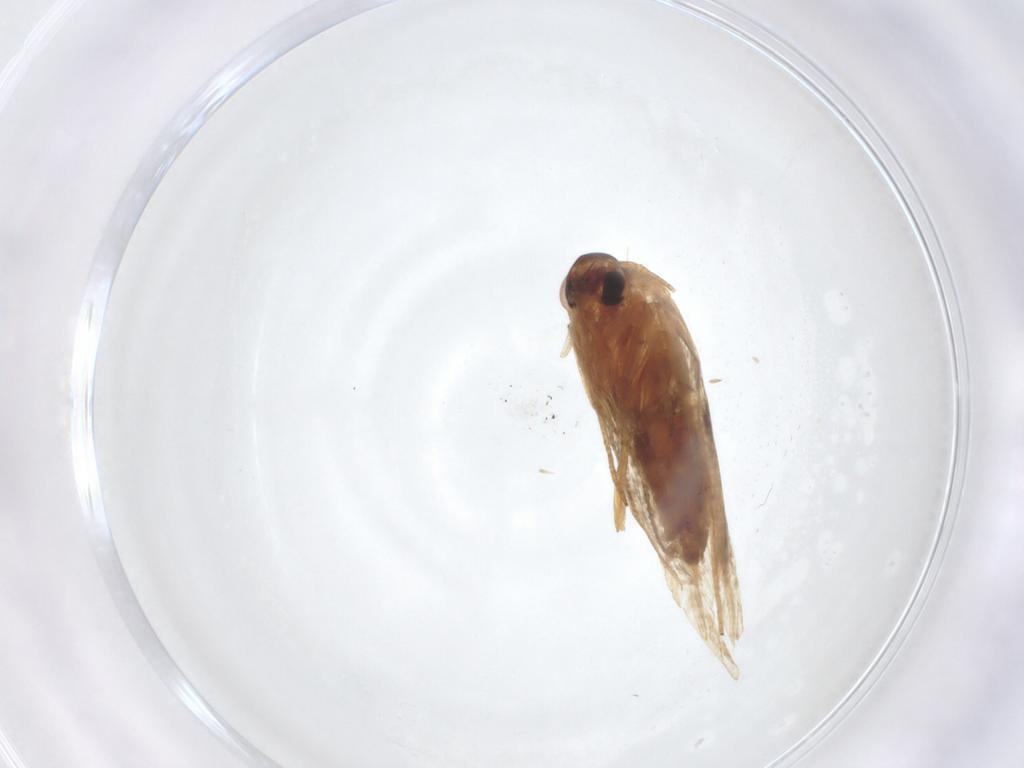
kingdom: Animalia
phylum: Arthropoda
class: Insecta
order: Lepidoptera
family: Blastobasidae
